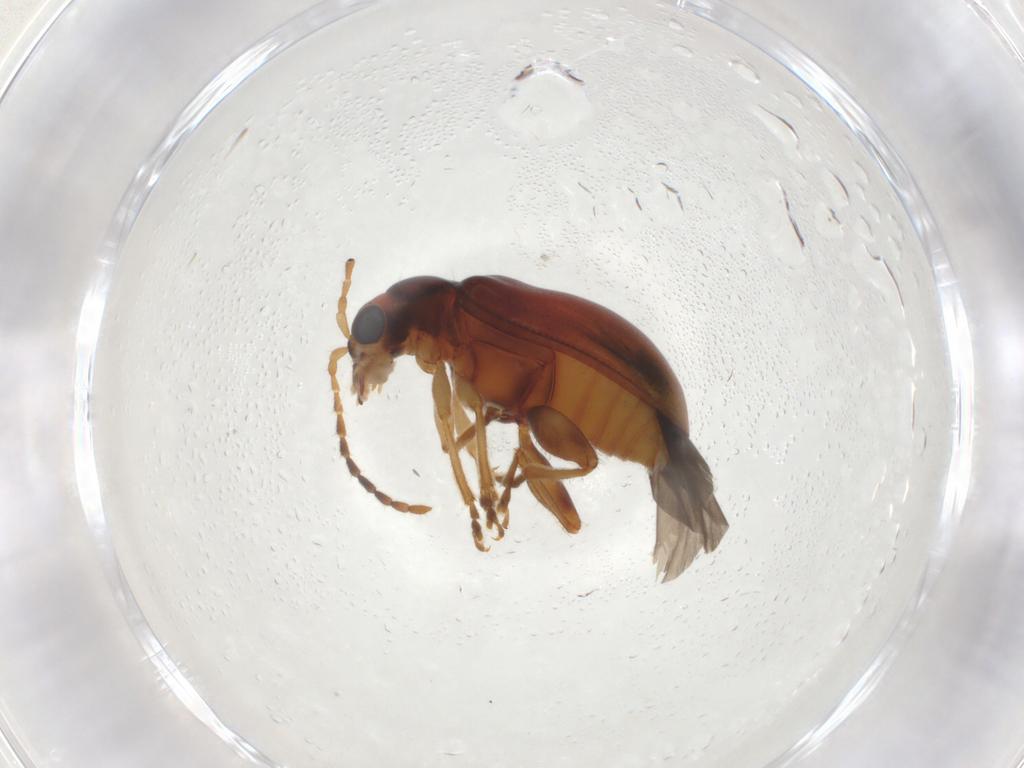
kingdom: Animalia
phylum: Arthropoda
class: Insecta
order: Coleoptera
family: Chrysomelidae
